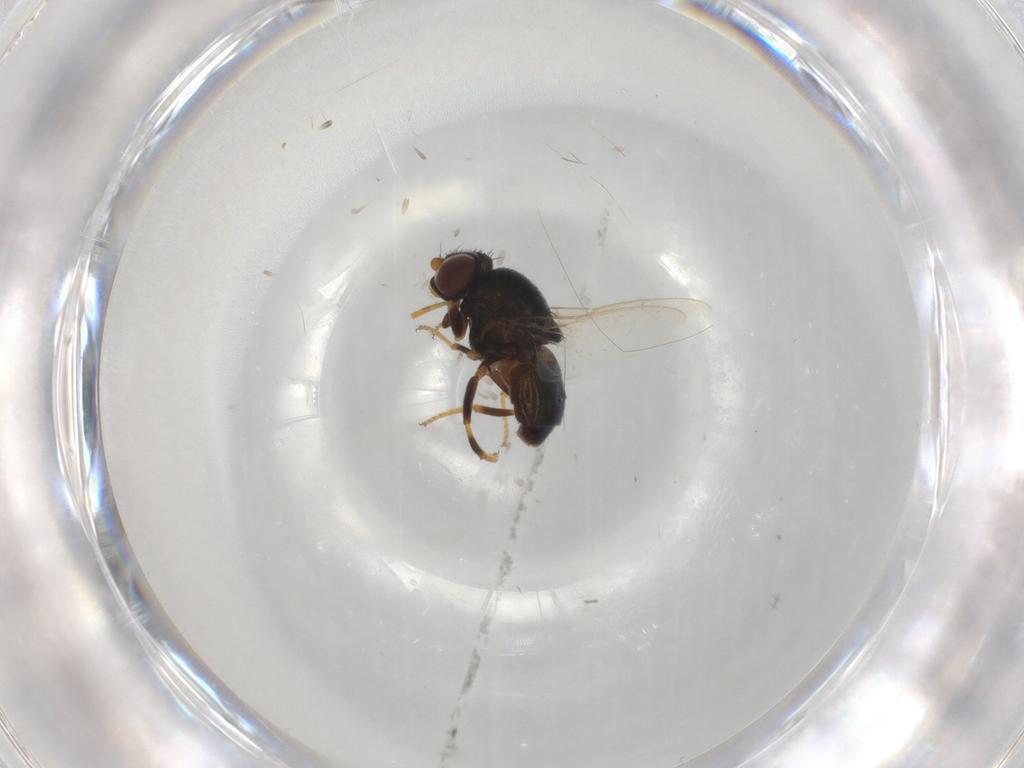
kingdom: Animalia
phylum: Arthropoda
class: Insecta
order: Diptera
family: Chloropidae
